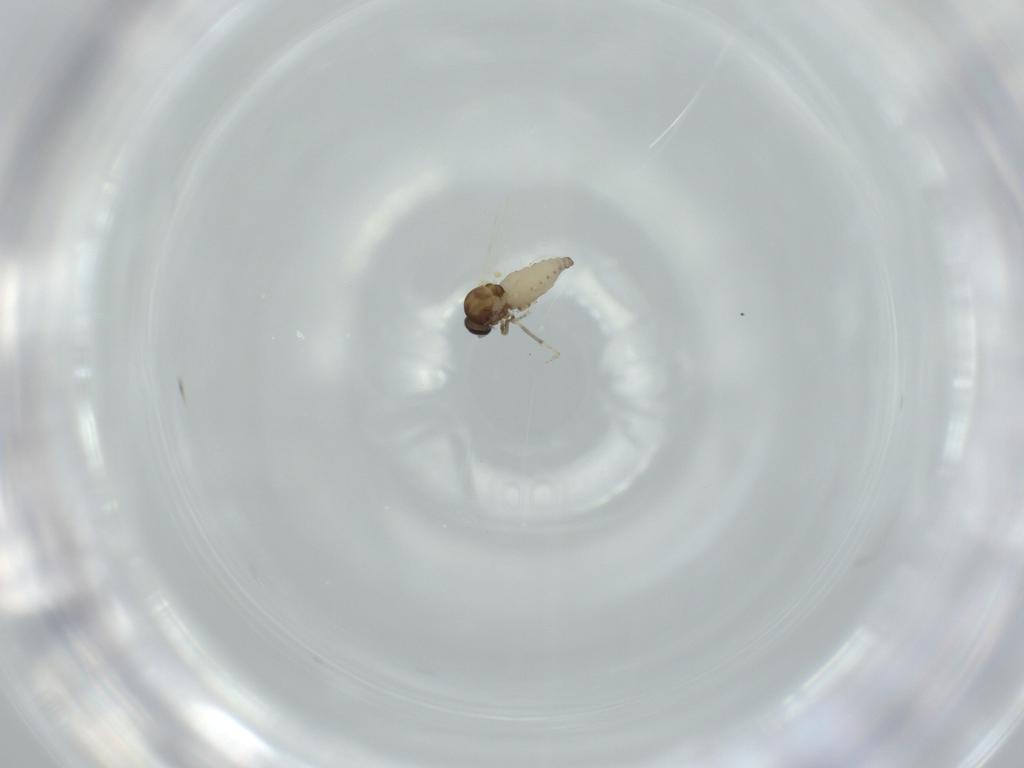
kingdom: Animalia
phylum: Arthropoda
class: Insecta
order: Diptera
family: Ceratopogonidae
